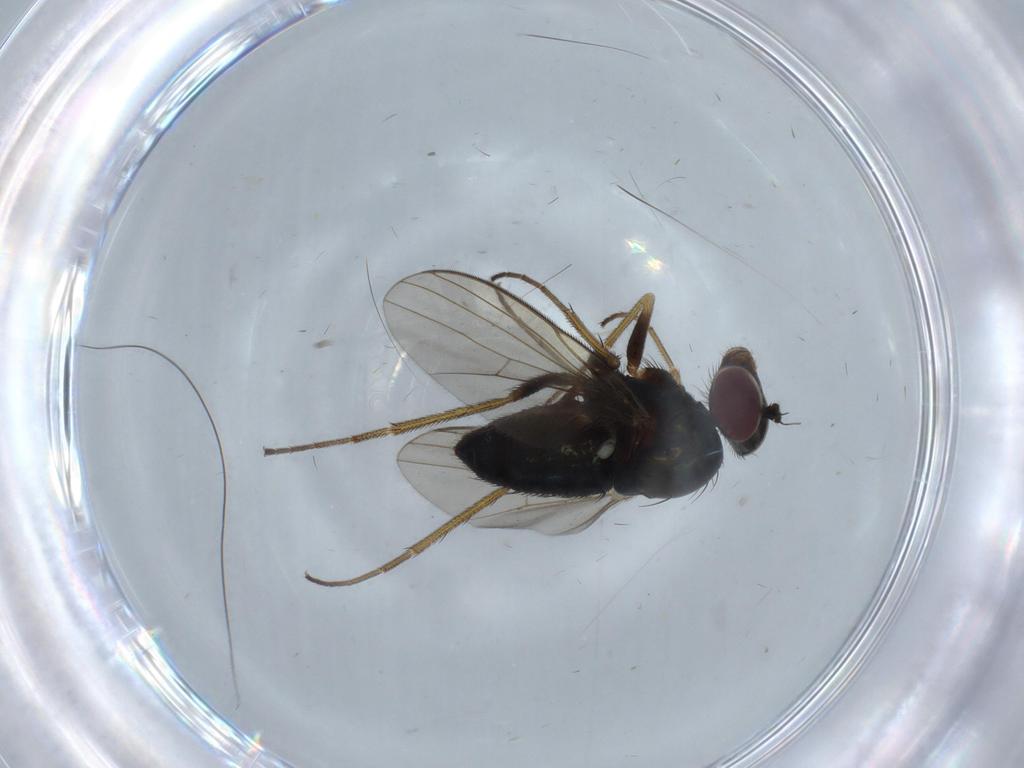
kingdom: Animalia
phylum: Arthropoda
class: Insecta
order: Diptera
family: Dolichopodidae
